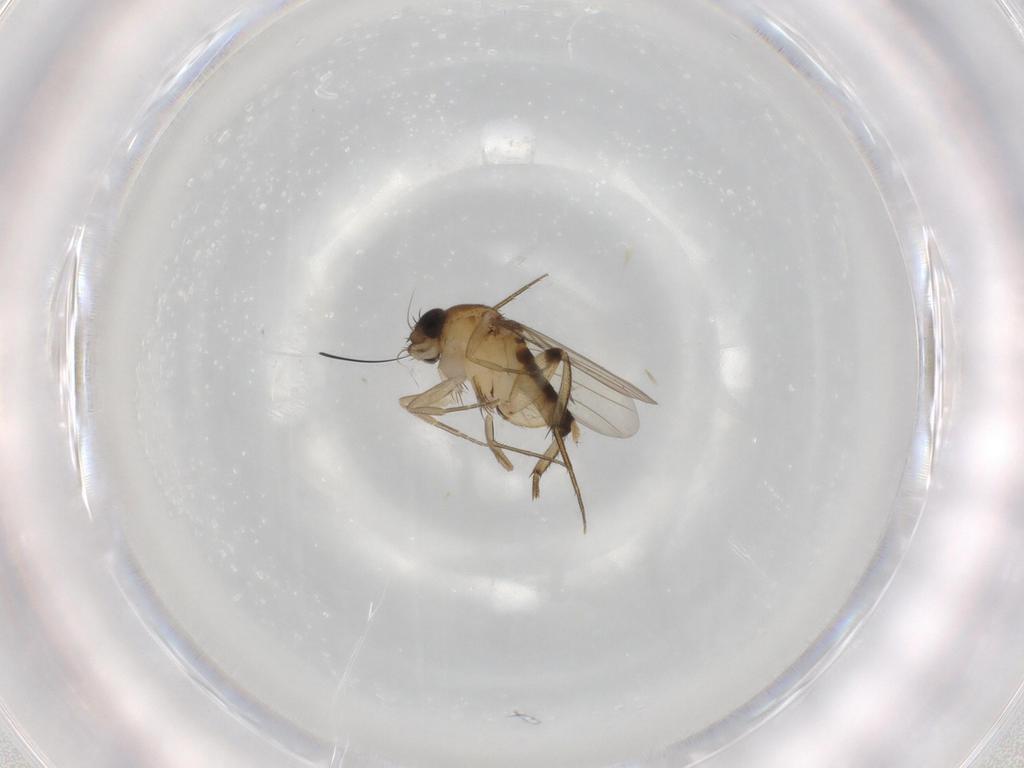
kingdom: Animalia
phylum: Arthropoda
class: Insecta
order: Diptera
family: Phoridae
